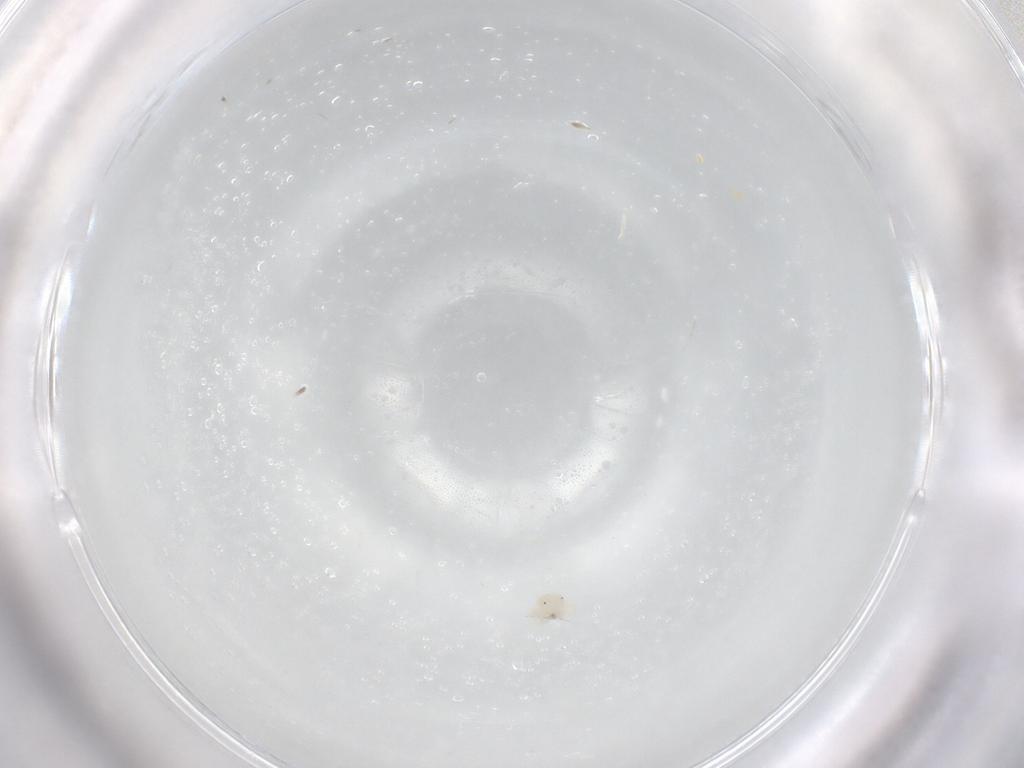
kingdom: Animalia
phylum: Arthropoda
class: Arachnida
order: Trombidiformes
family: Anystidae
